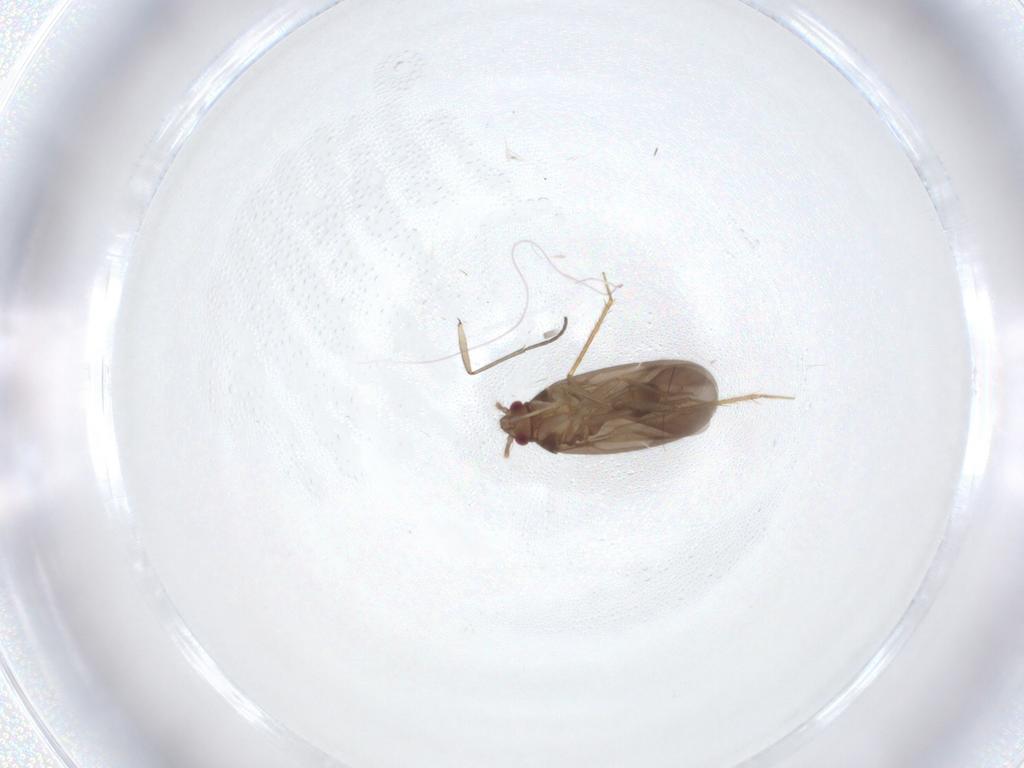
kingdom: Animalia
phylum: Arthropoda
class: Insecta
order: Hemiptera
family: Ceratocombidae
